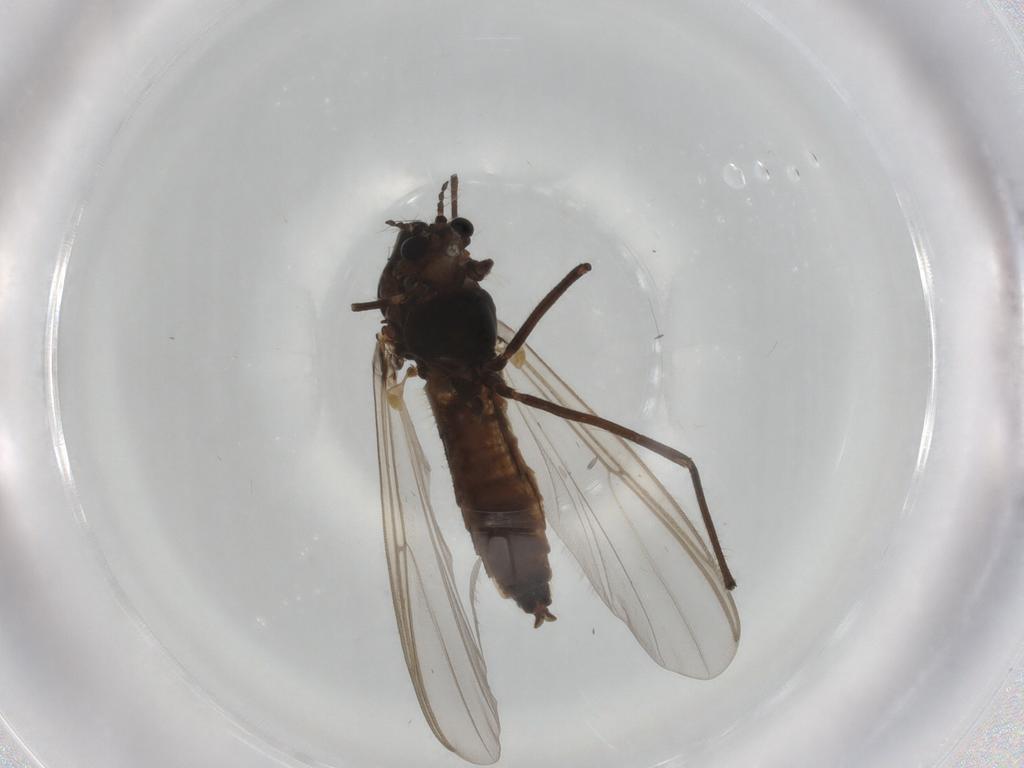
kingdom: Animalia
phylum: Arthropoda
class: Insecta
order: Diptera
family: Chironomidae
